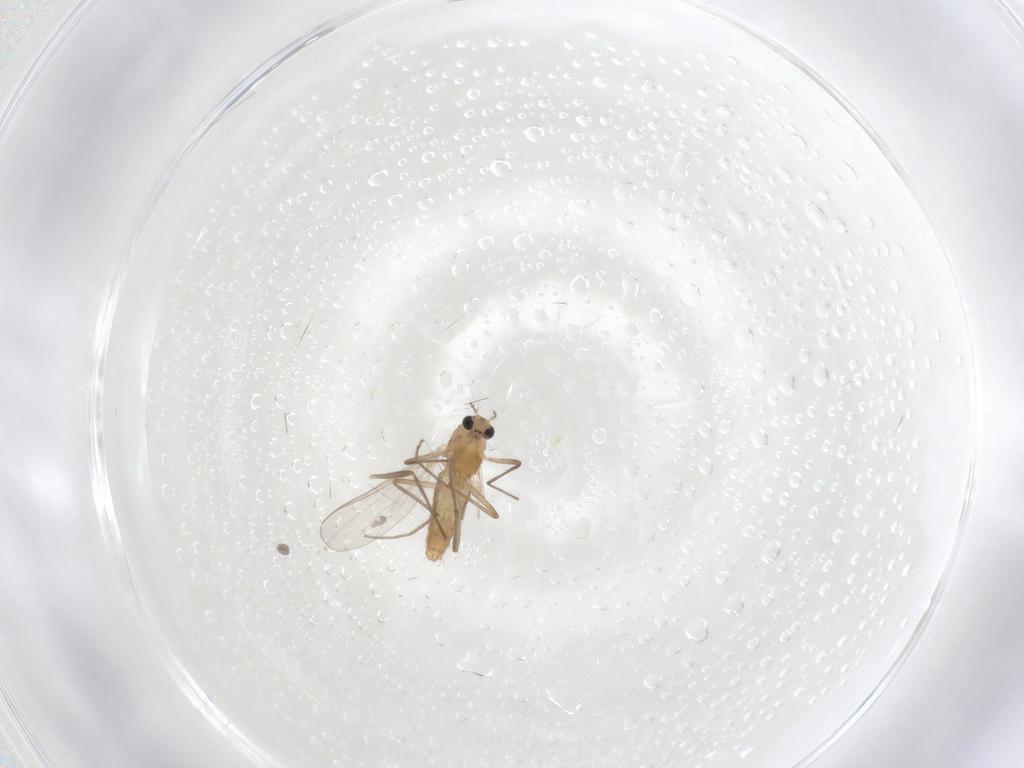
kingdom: Animalia
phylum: Arthropoda
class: Insecta
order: Diptera
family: Chironomidae
